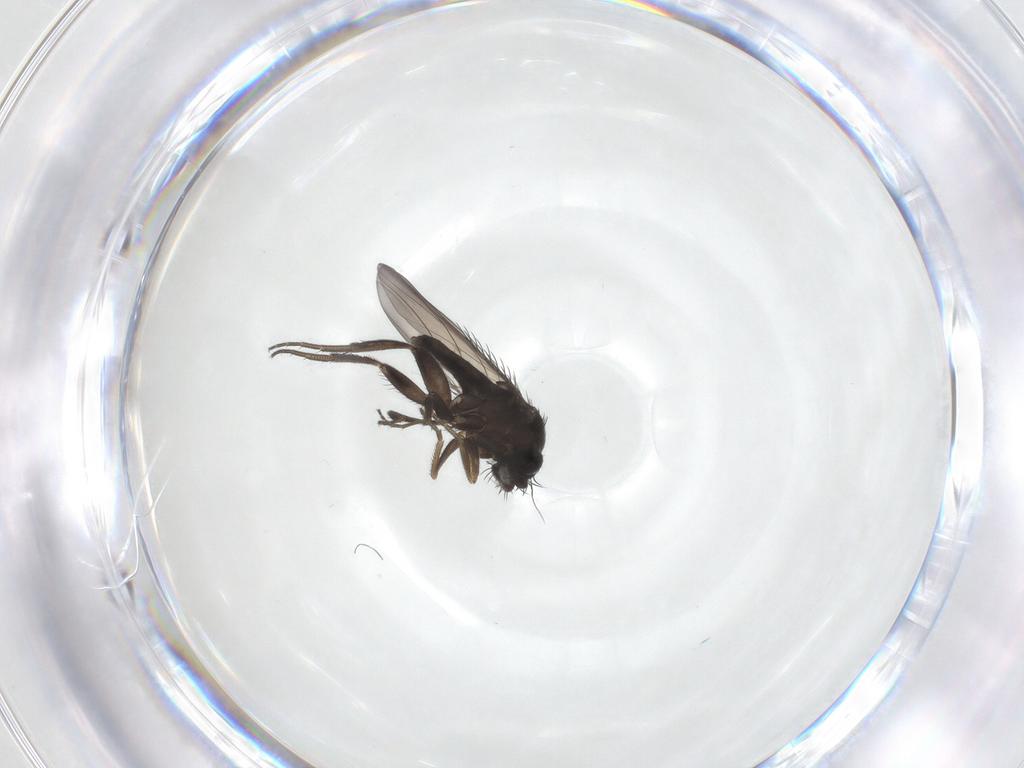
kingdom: Animalia
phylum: Arthropoda
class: Insecta
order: Diptera
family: Phoridae
